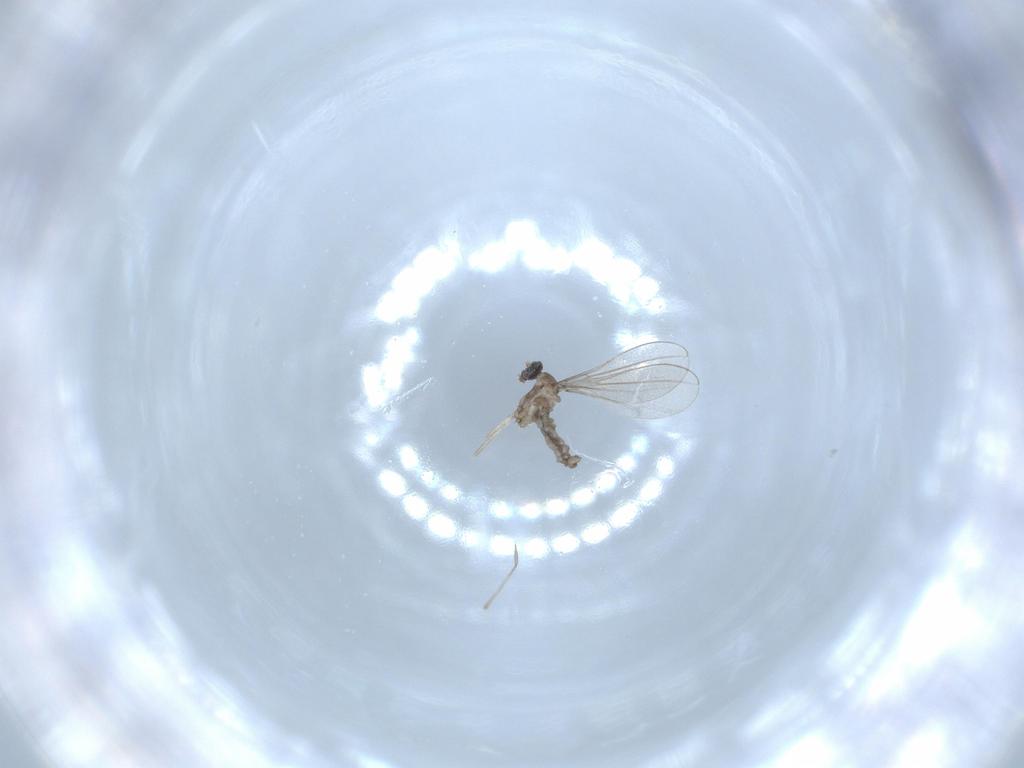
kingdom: Animalia
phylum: Arthropoda
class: Insecta
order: Diptera
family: Cecidomyiidae
